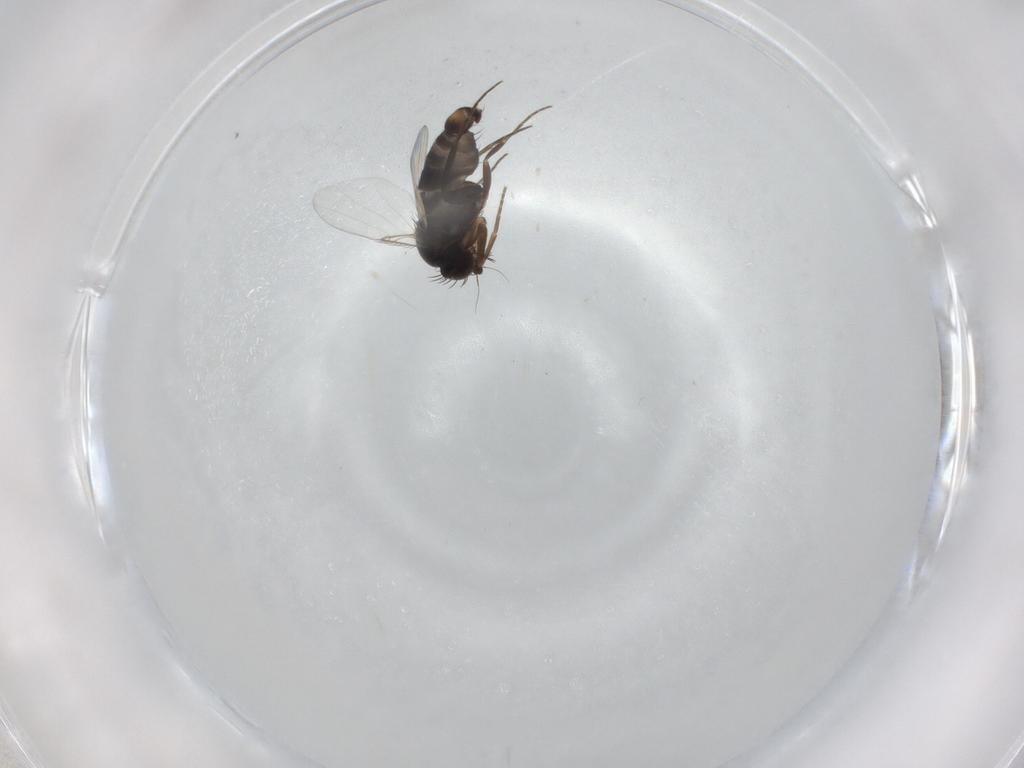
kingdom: Animalia
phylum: Arthropoda
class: Insecta
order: Diptera
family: Phoridae
